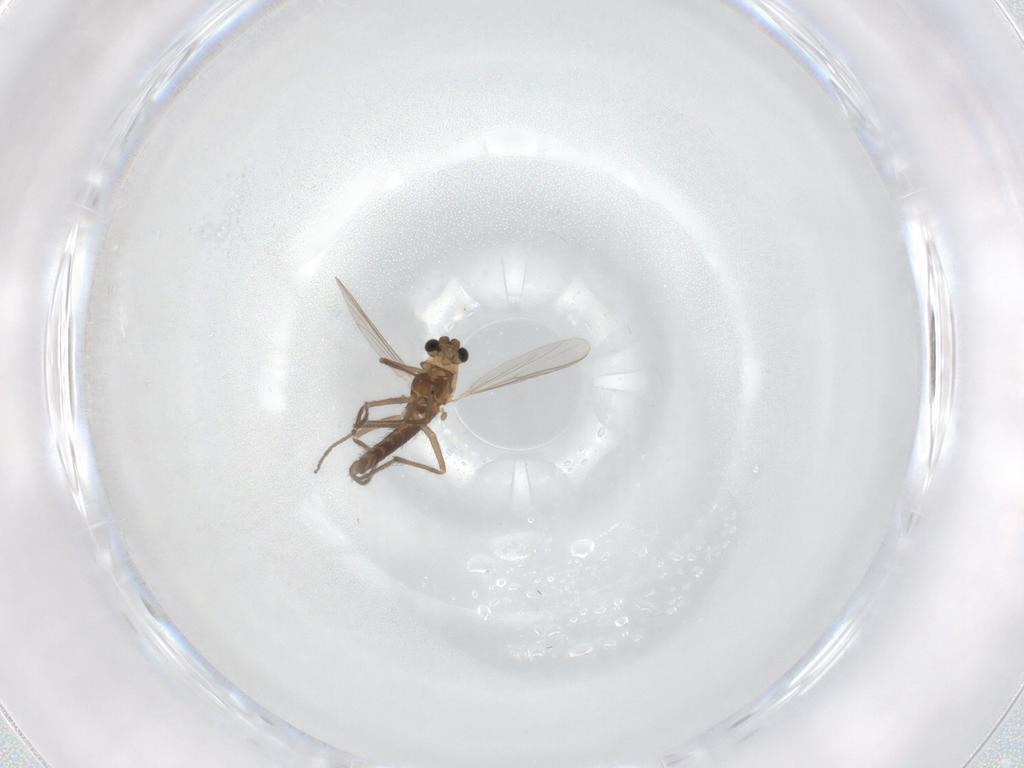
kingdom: Animalia
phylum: Arthropoda
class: Insecta
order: Diptera
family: Chironomidae
